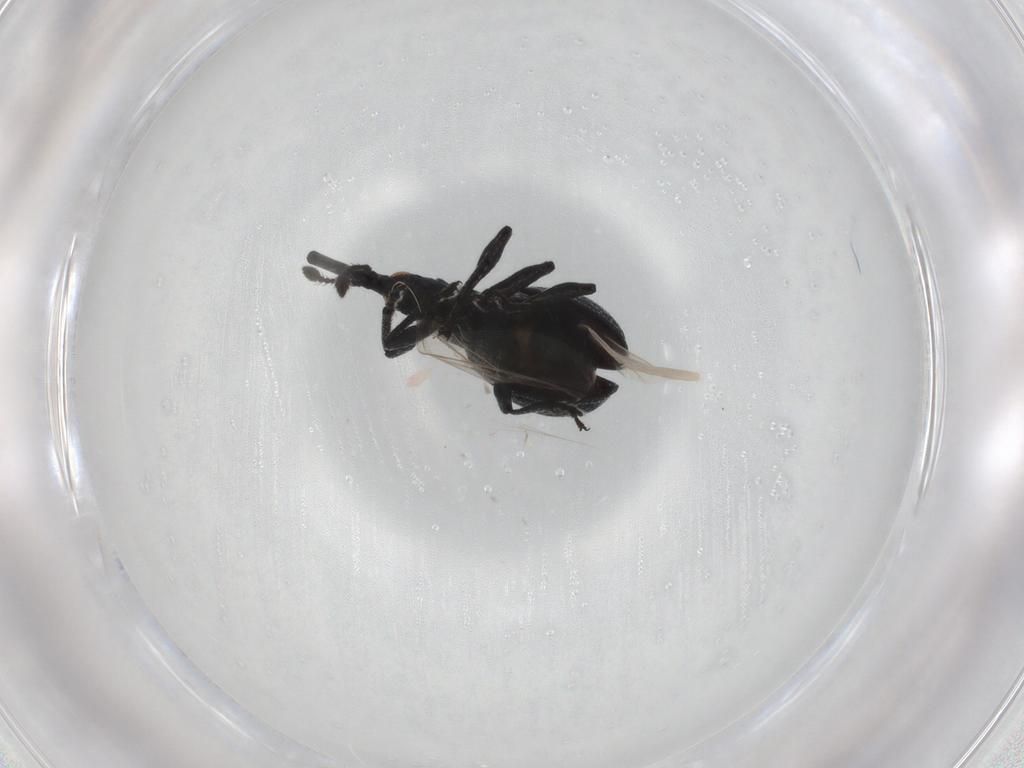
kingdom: Animalia
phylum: Arthropoda
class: Insecta
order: Coleoptera
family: Brentidae
